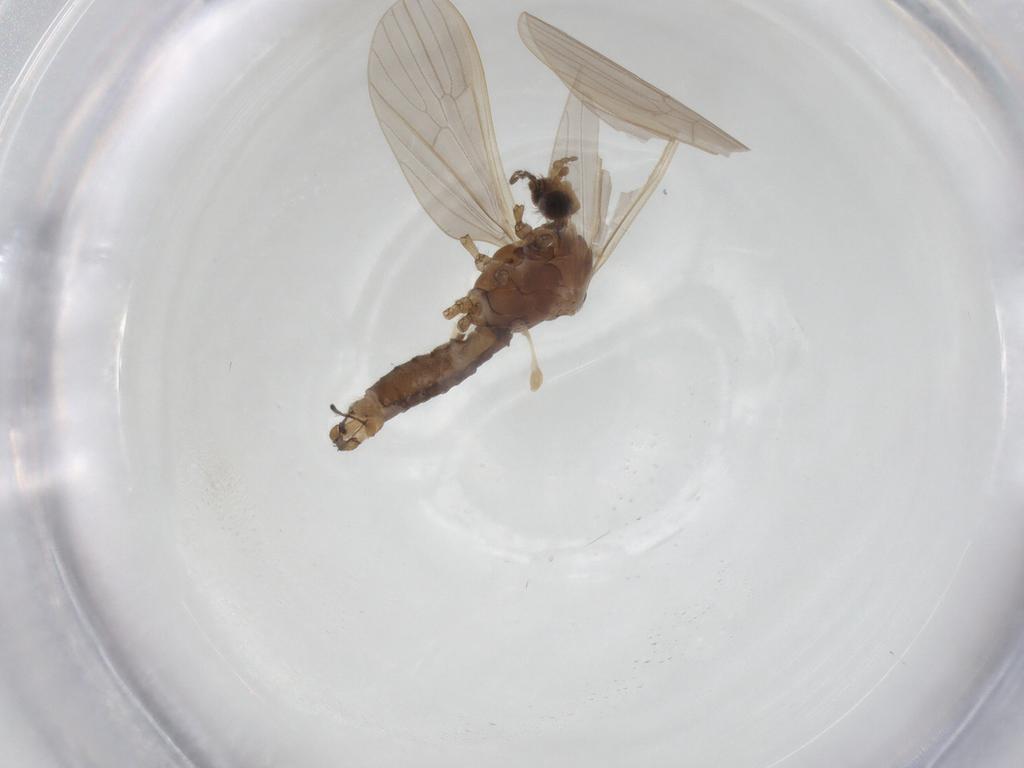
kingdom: Animalia
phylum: Arthropoda
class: Insecta
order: Diptera
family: Limoniidae
